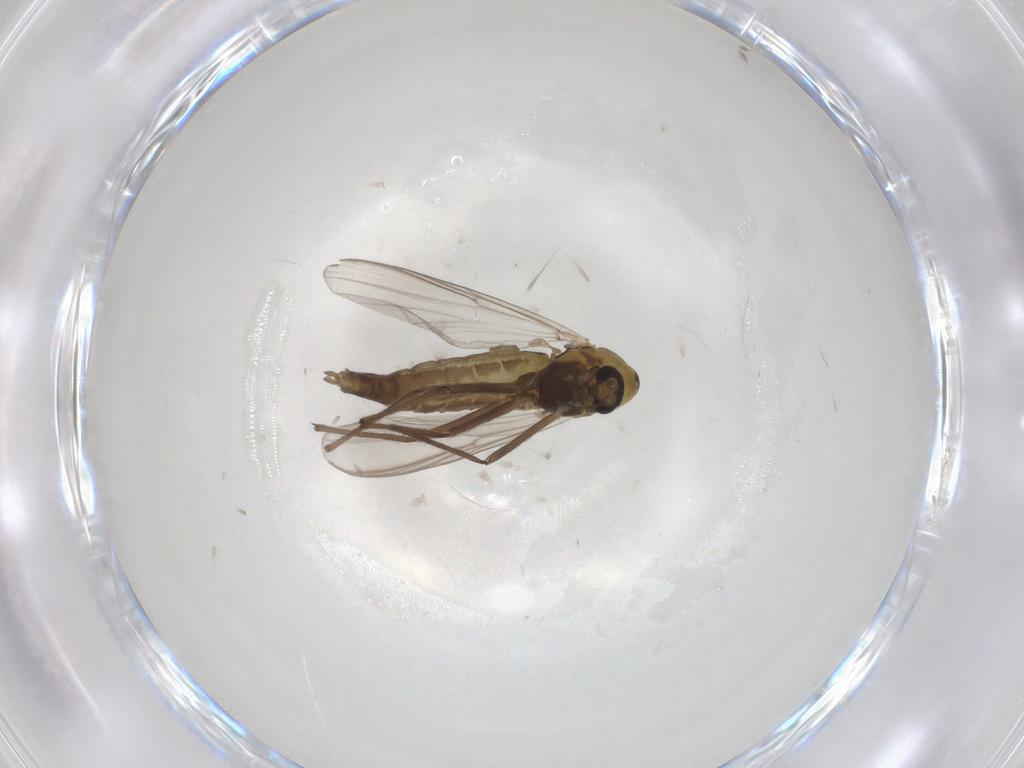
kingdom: Animalia
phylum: Arthropoda
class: Insecta
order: Diptera
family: Chironomidae
